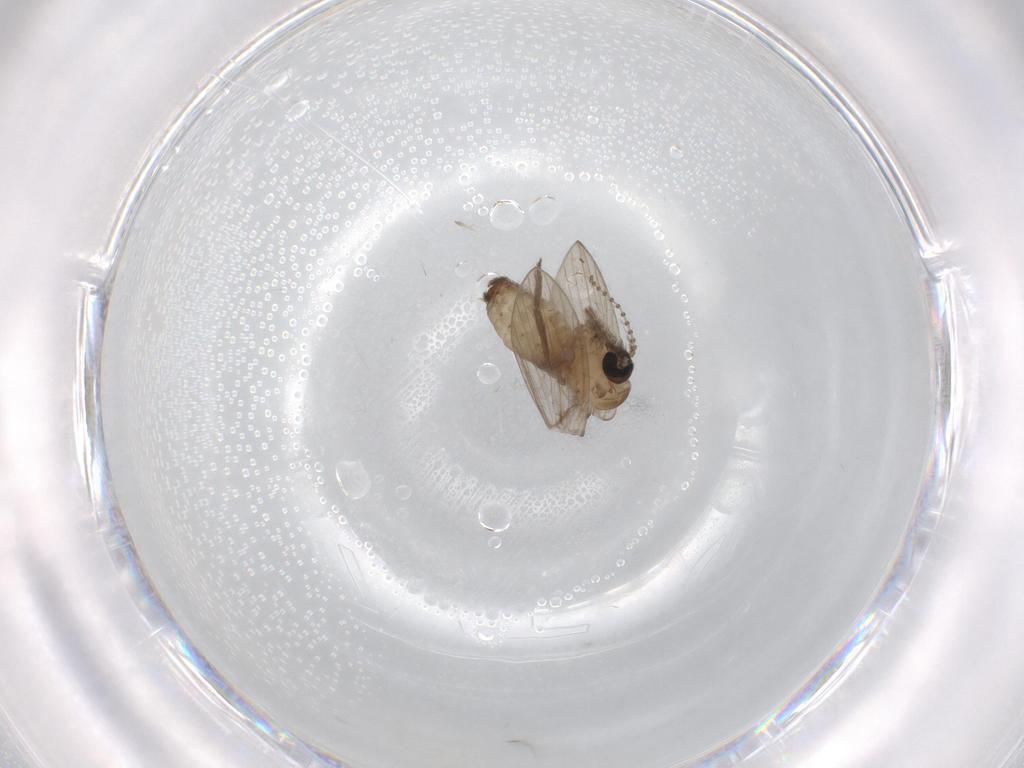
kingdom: Animalia
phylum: Arthropoda
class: Insecta
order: Diptera
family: Psychodidae
